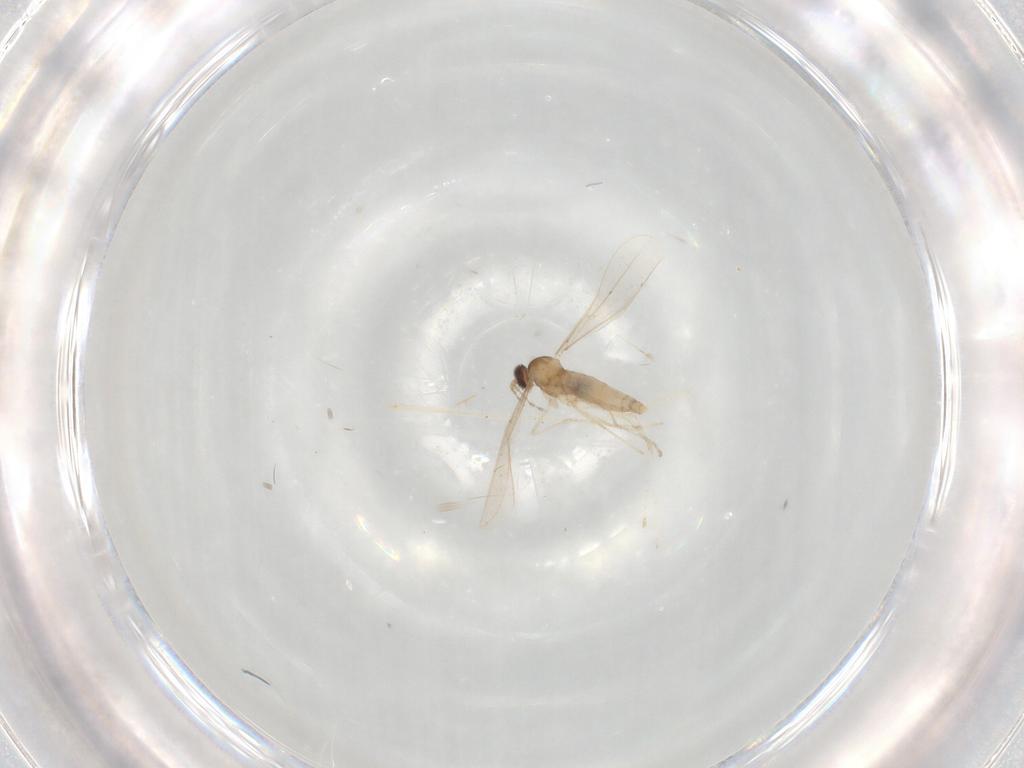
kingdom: Animalia
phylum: Arthropoda
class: Insecta
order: Diptera
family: Cecidomyiidae
